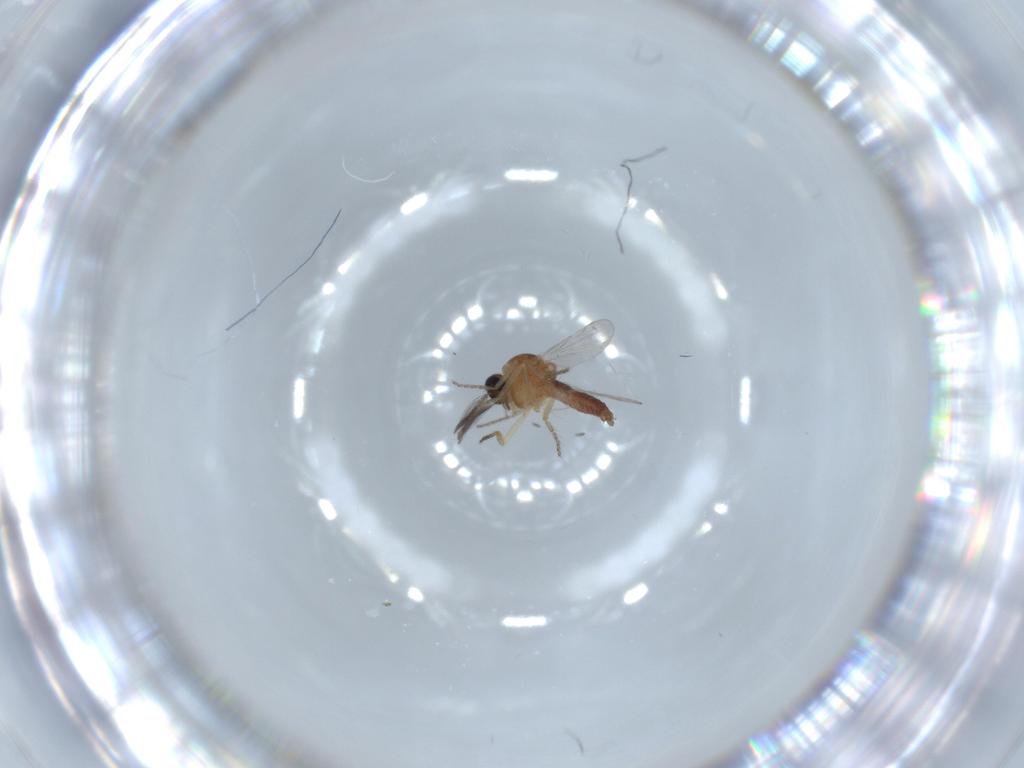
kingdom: Animalia
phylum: Arthropoda
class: Insecta
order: Diptera
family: Ceratopogonidae
